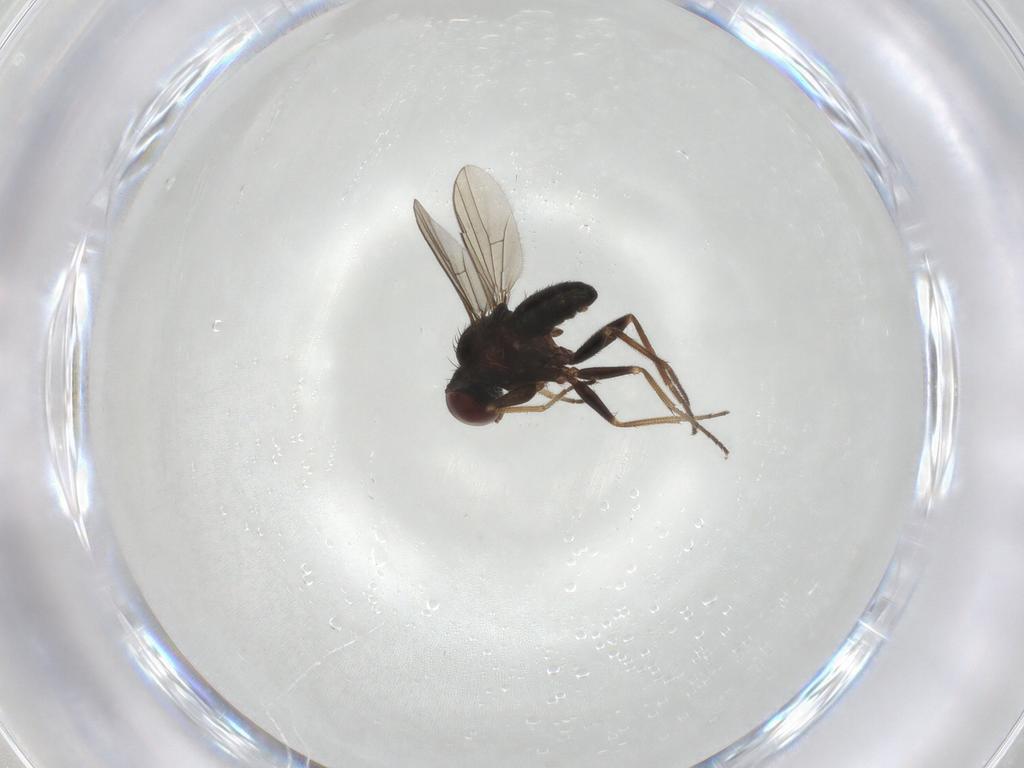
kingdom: Animalia
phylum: Arthropoda
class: Insecta
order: Diptera
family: Dolichopodidae
